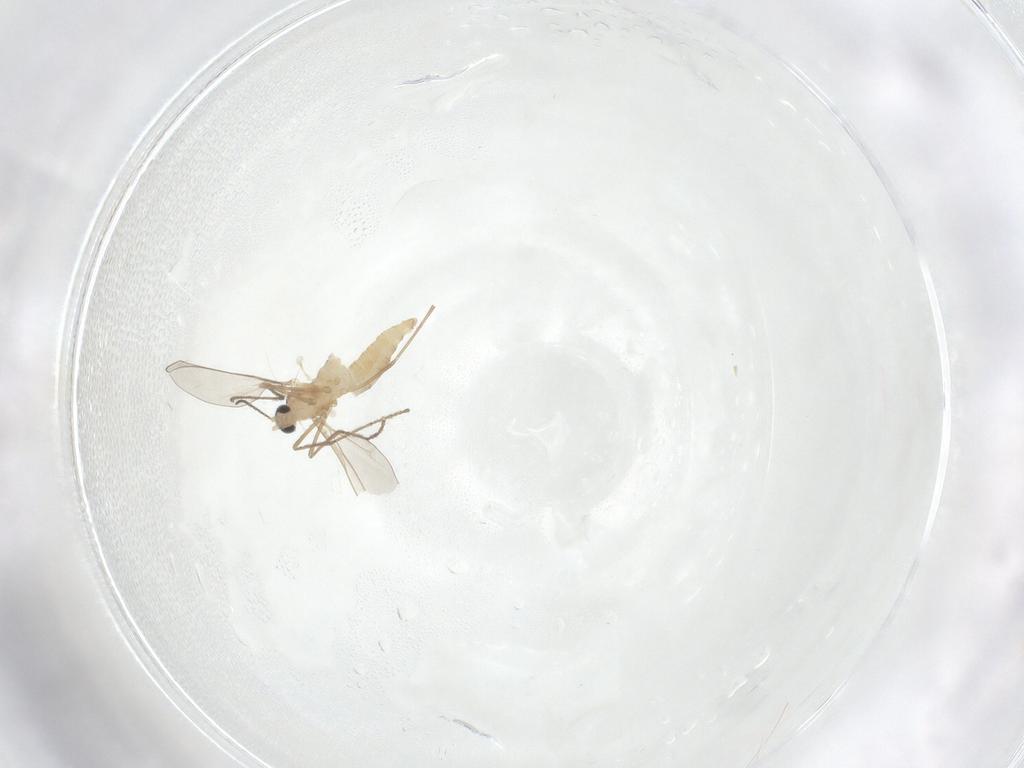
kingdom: Animalia
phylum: Arthropoda
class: Insecta
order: Diptera
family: Cecidomyiidae
